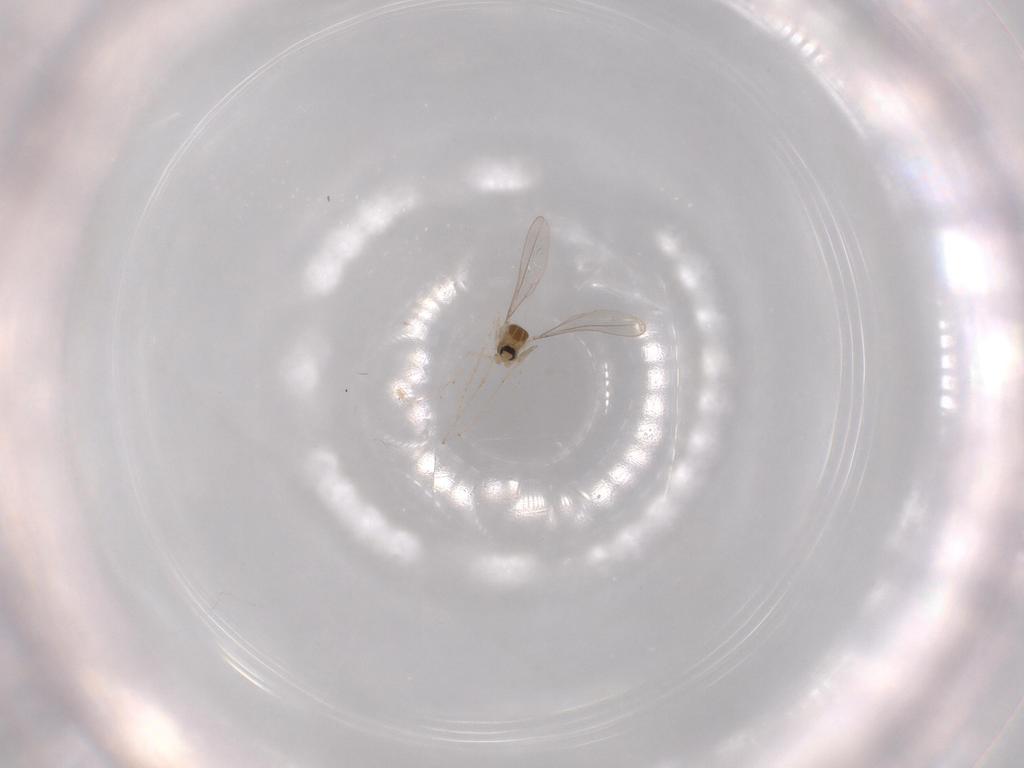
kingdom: Animalia
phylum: Arthropoda
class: Insecta
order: Diptera
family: Cecidomyiidae
